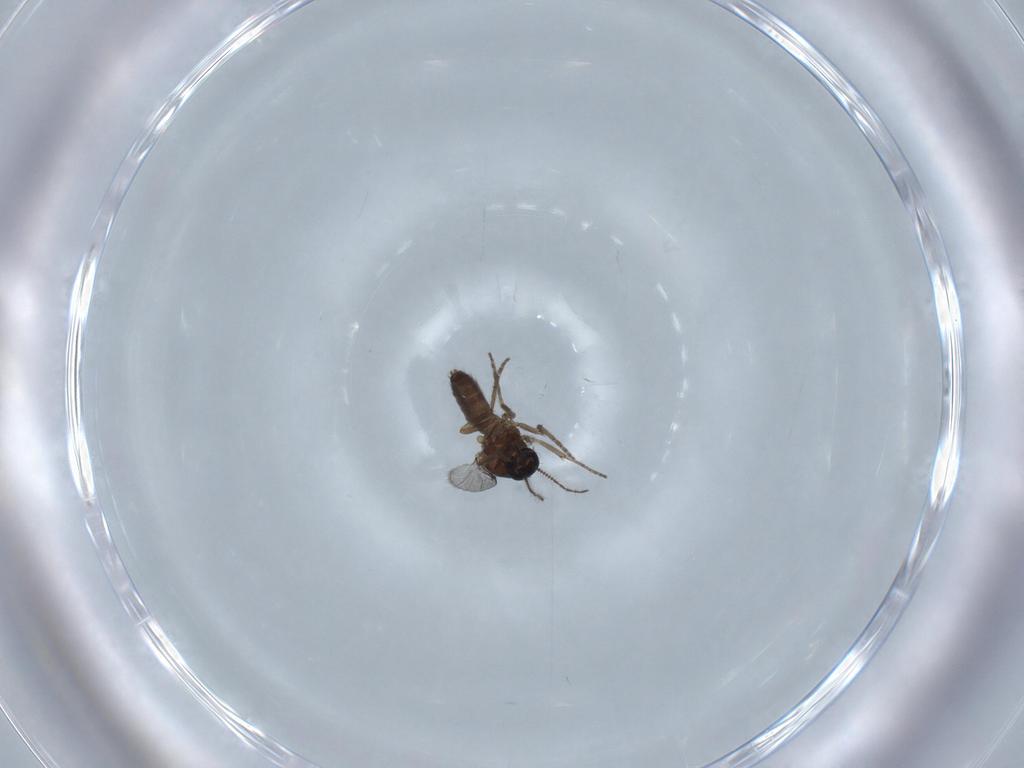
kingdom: Animalia
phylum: Arthropoda
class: Insecta
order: Diptera
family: Ceratopogonidae
